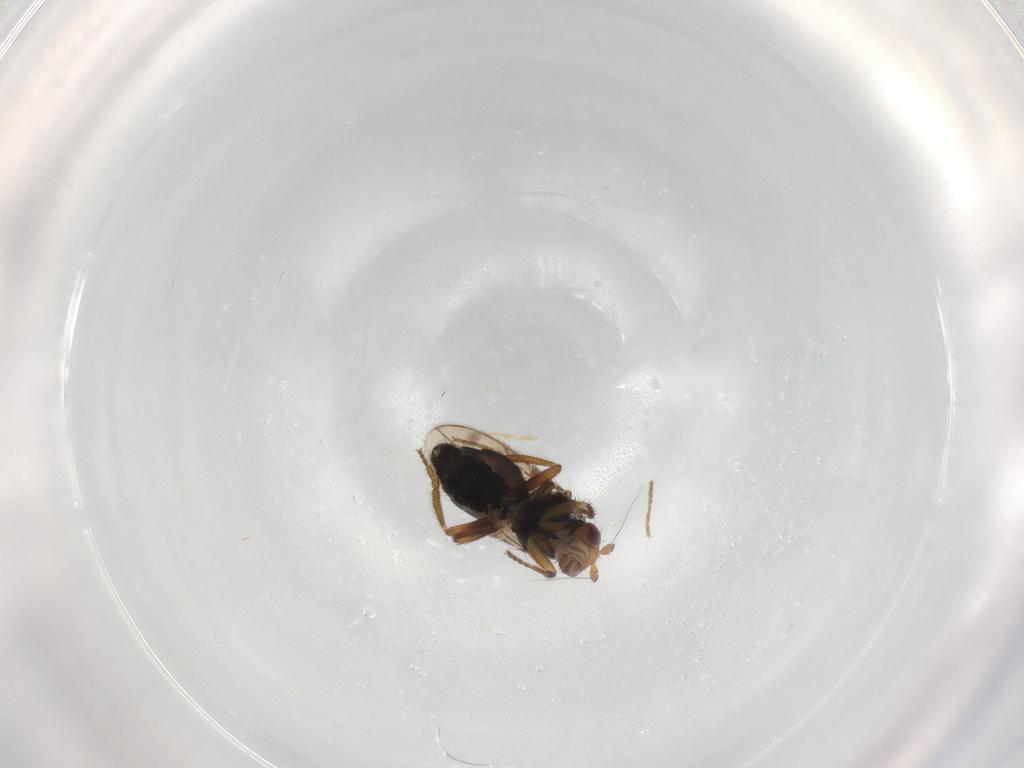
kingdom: Animalia
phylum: Arthropoda
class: Insecta
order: Diptera
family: Sphaeroceridae
